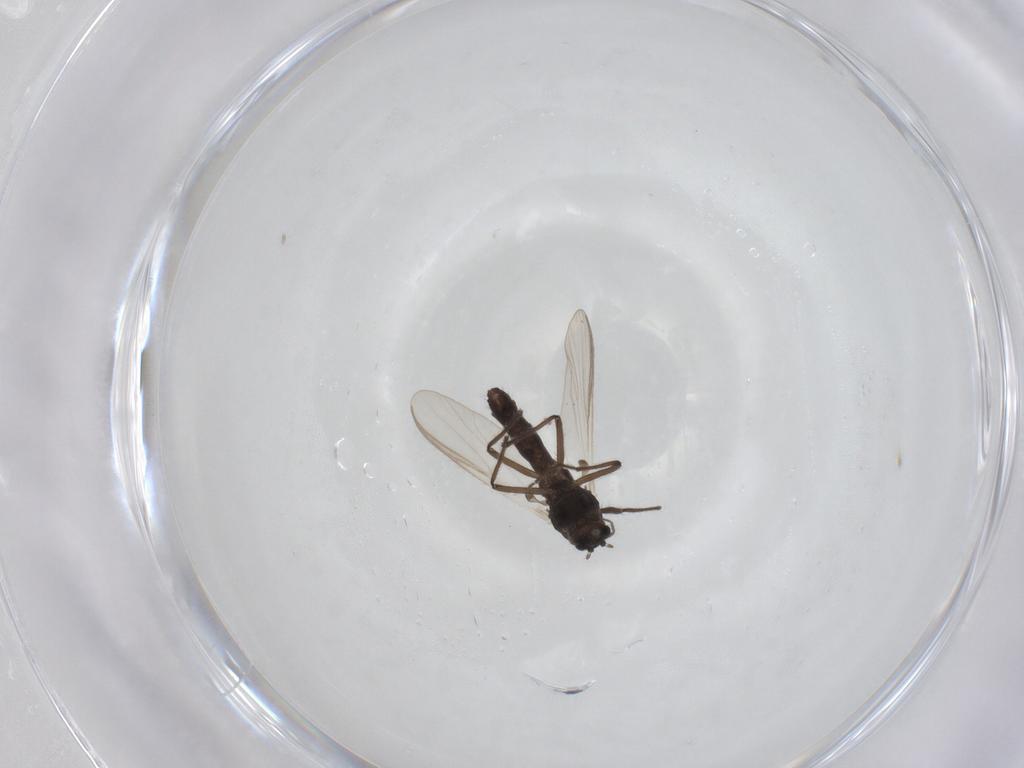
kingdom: Animalia
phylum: Arthropoda
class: Insecta
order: Diptera
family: Chironomidae
